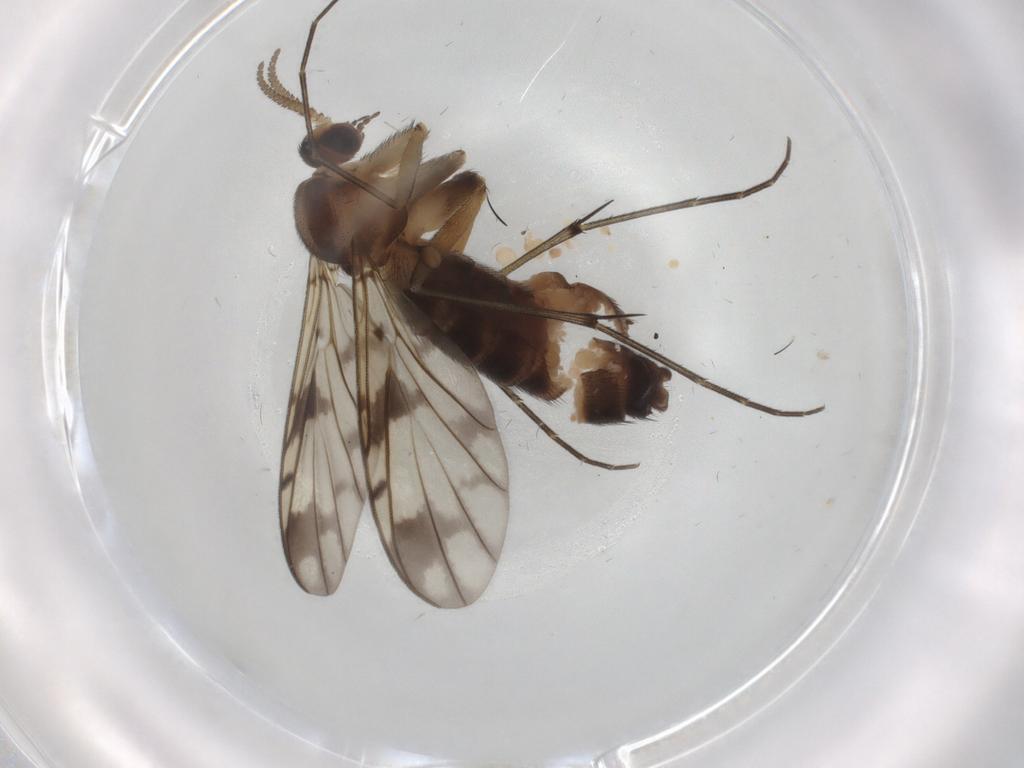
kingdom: Animalia
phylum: Arthropoda
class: Insecta
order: Diptera
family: Keroplatidae
